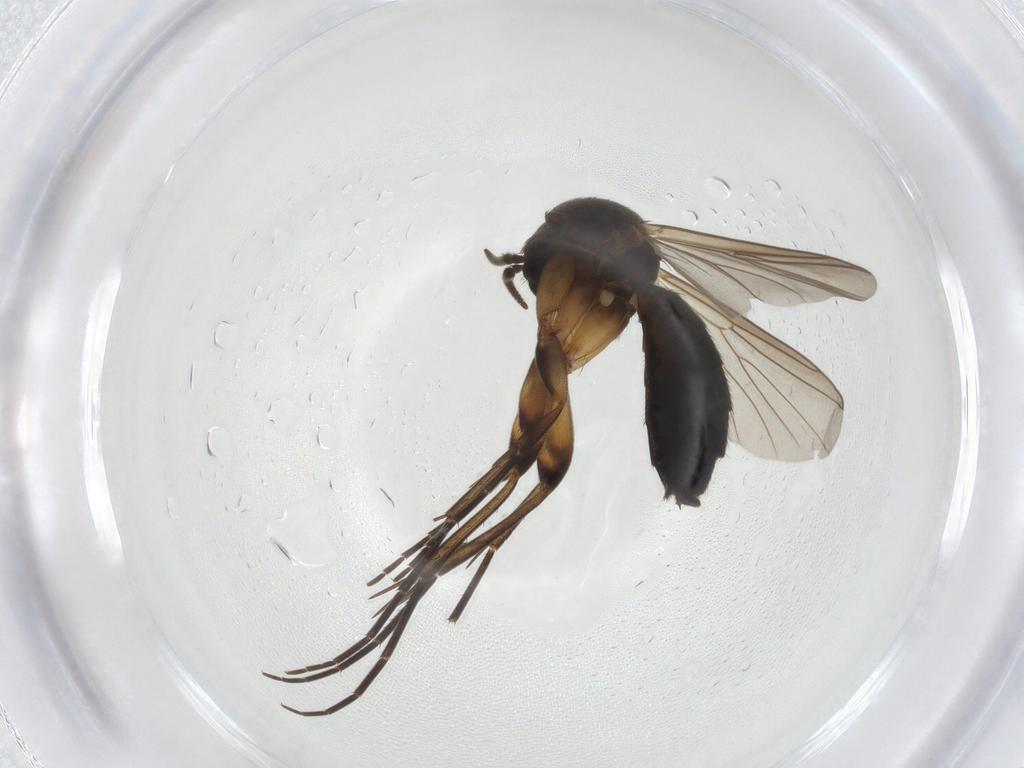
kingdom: Animalia
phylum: Arthropoda
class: Insecta
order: Diptera
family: Mycetophilidae
